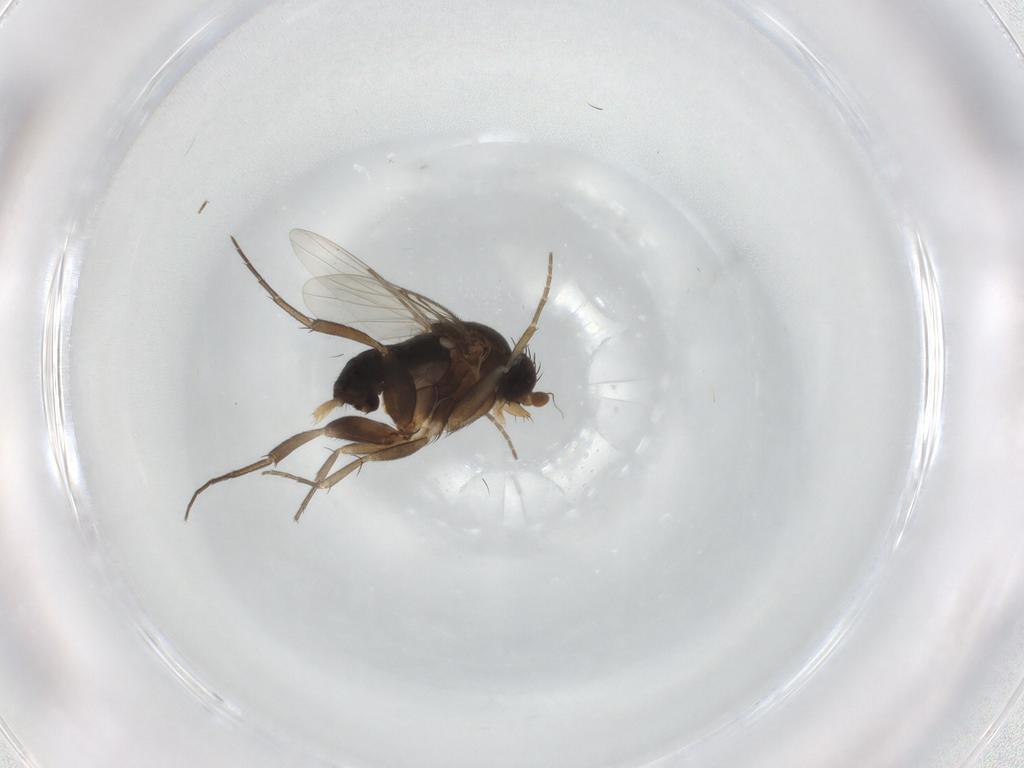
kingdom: Animalia
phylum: Arthropoda
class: Insecta
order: Diptera
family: Phoridae
